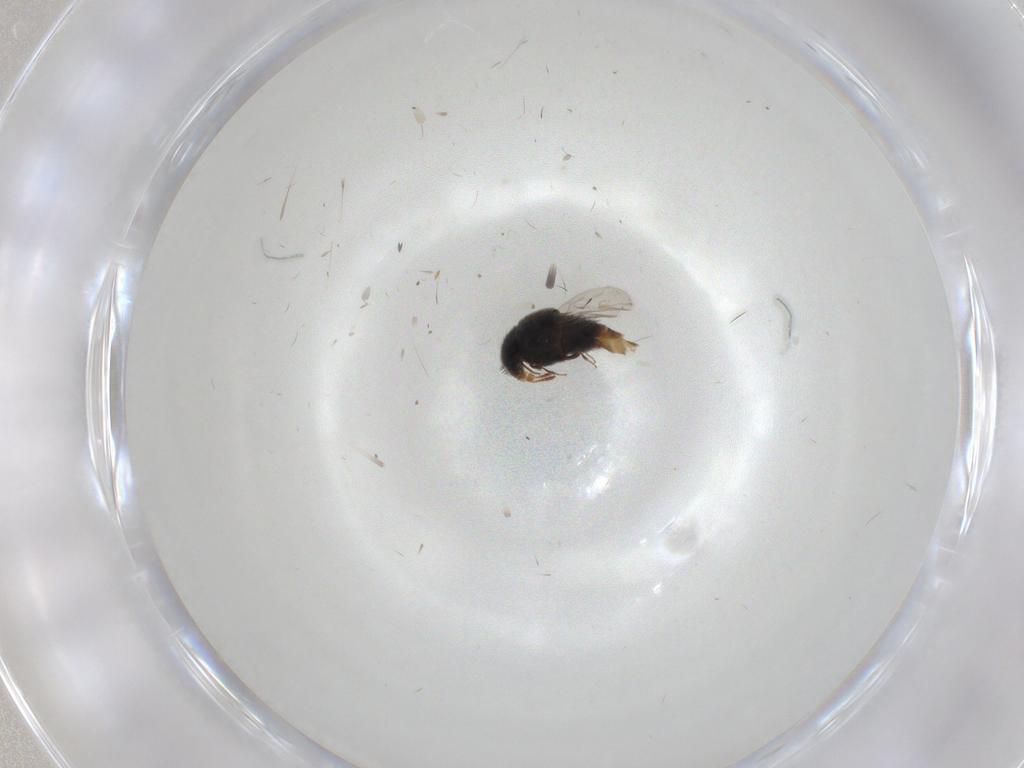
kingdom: Animalia
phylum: Arthropoda
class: Insecta
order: Coleoptera
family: Staphylinidae
